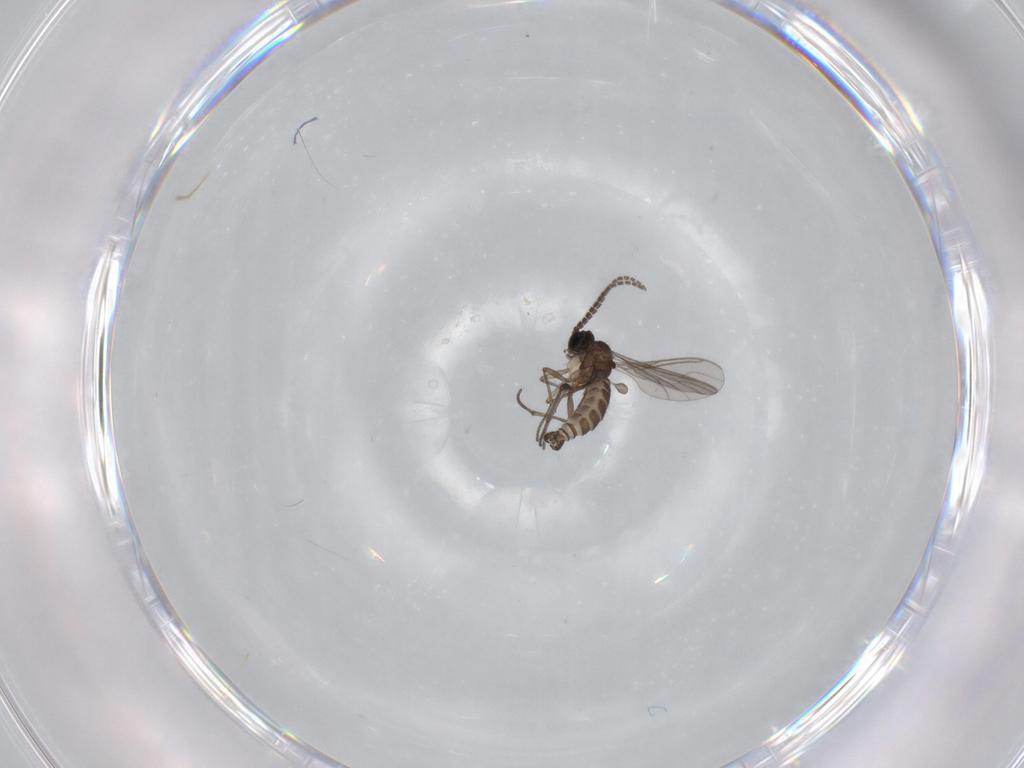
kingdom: Animalia
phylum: Arthropoda
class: Insecta
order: Diptera
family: Sciaridae
